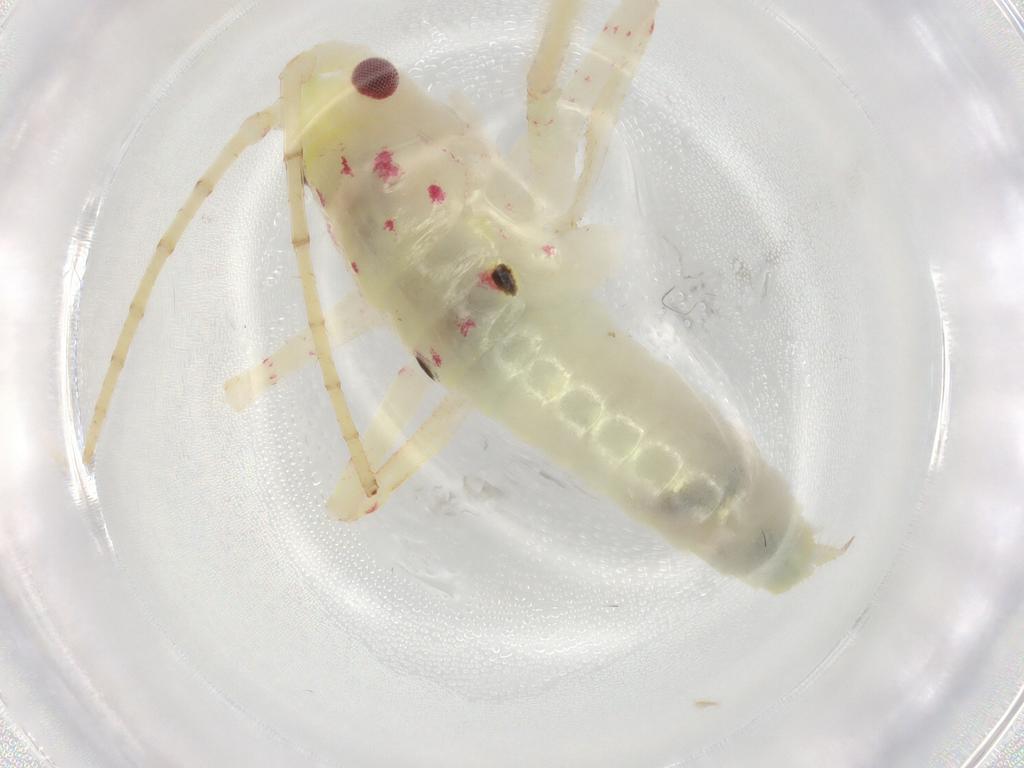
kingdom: Animalia
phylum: Arthropoda
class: Insecta
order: Orthoptera
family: Tettigoniidae
